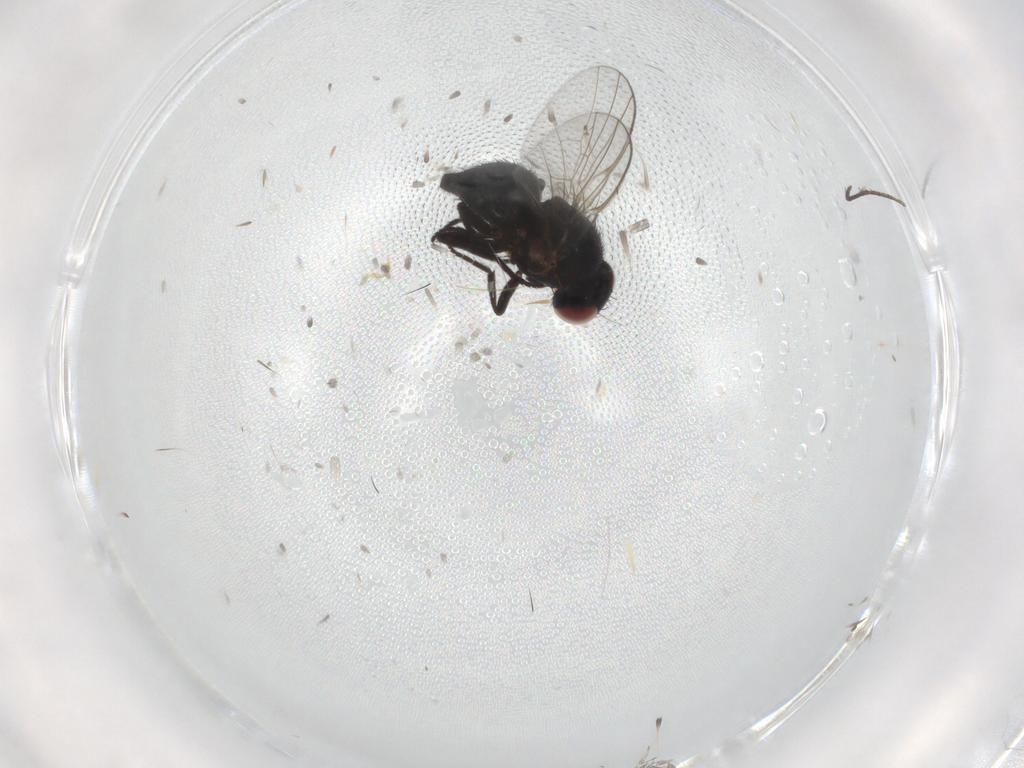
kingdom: Animalia
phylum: Arthropoda
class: Insecta
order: Diptera
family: Agromyzidae
